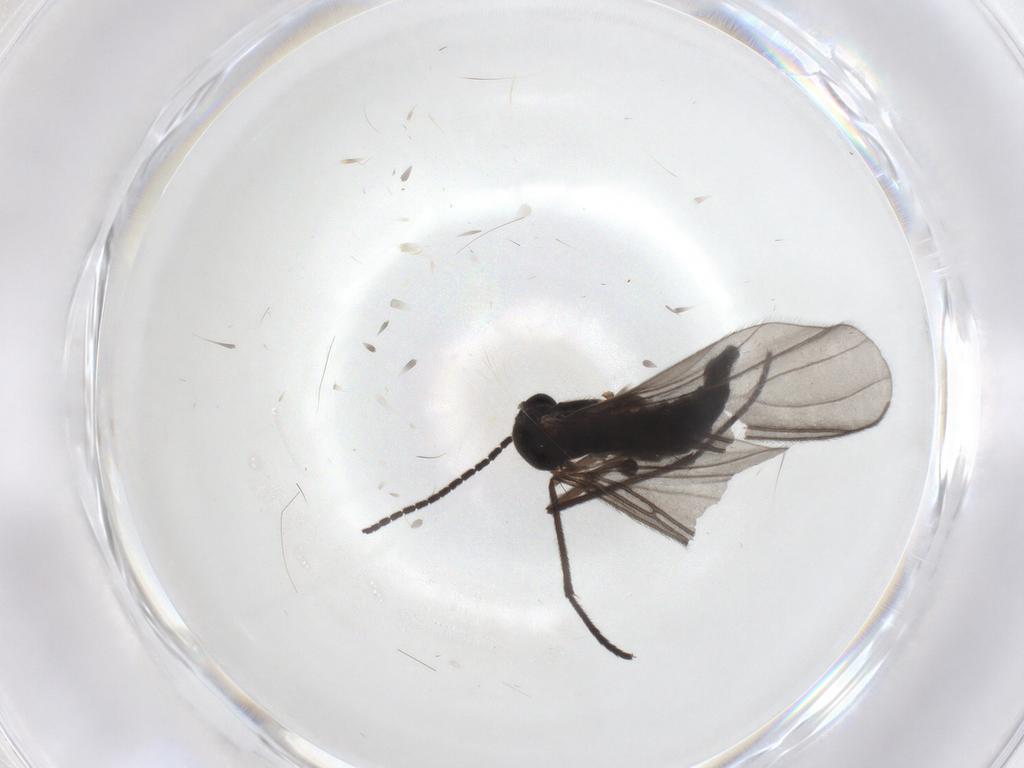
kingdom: Animalia
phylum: Arthropoda
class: Insecta
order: Diptera
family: Sciaridae
